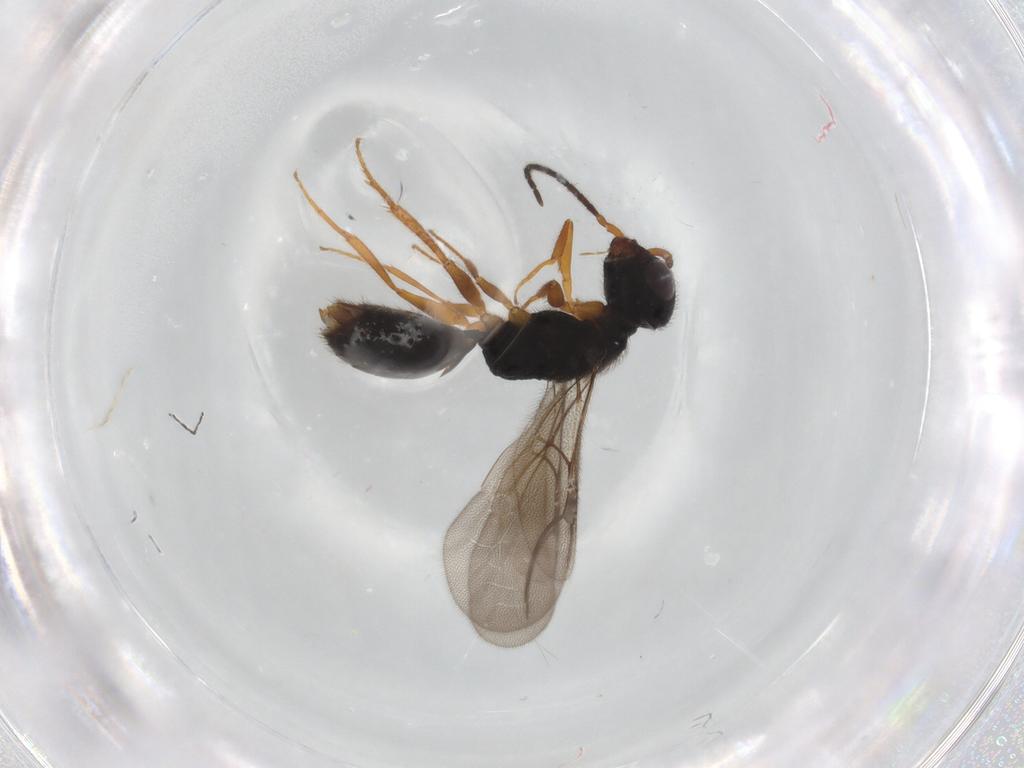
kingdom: Animalia
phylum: Arthropoda
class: Insecta
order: Hymenoptera
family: Bethylidae
